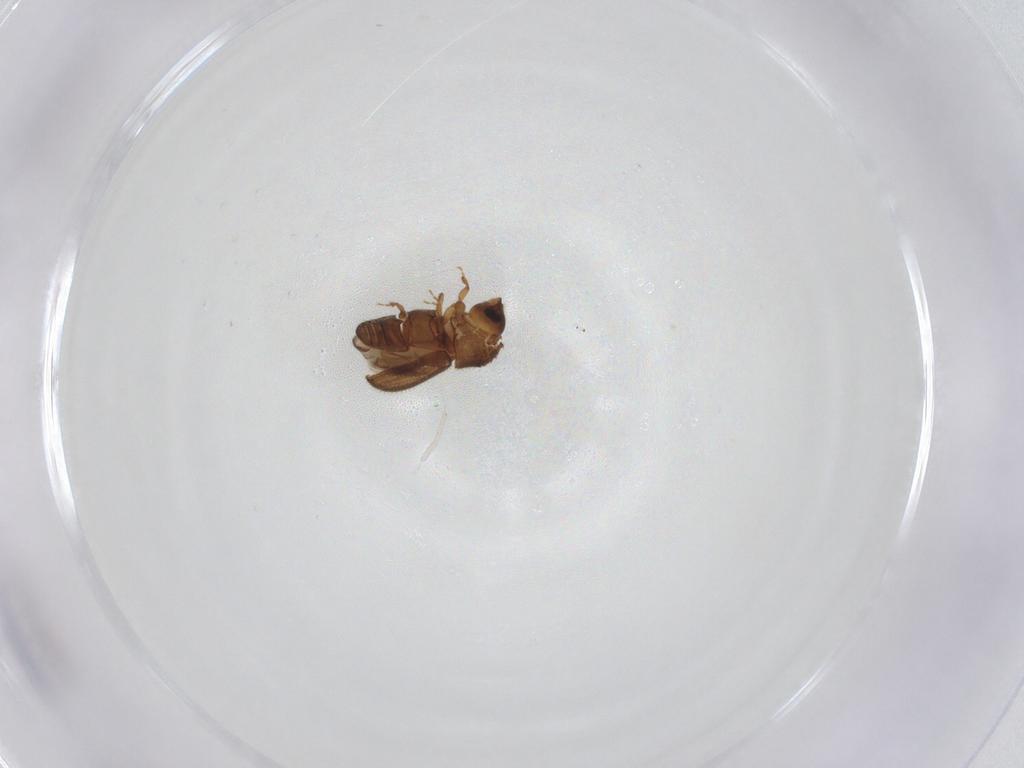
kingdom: Animalia
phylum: Arthropoda
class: Insecta
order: Coleoptera
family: Curculionidae
